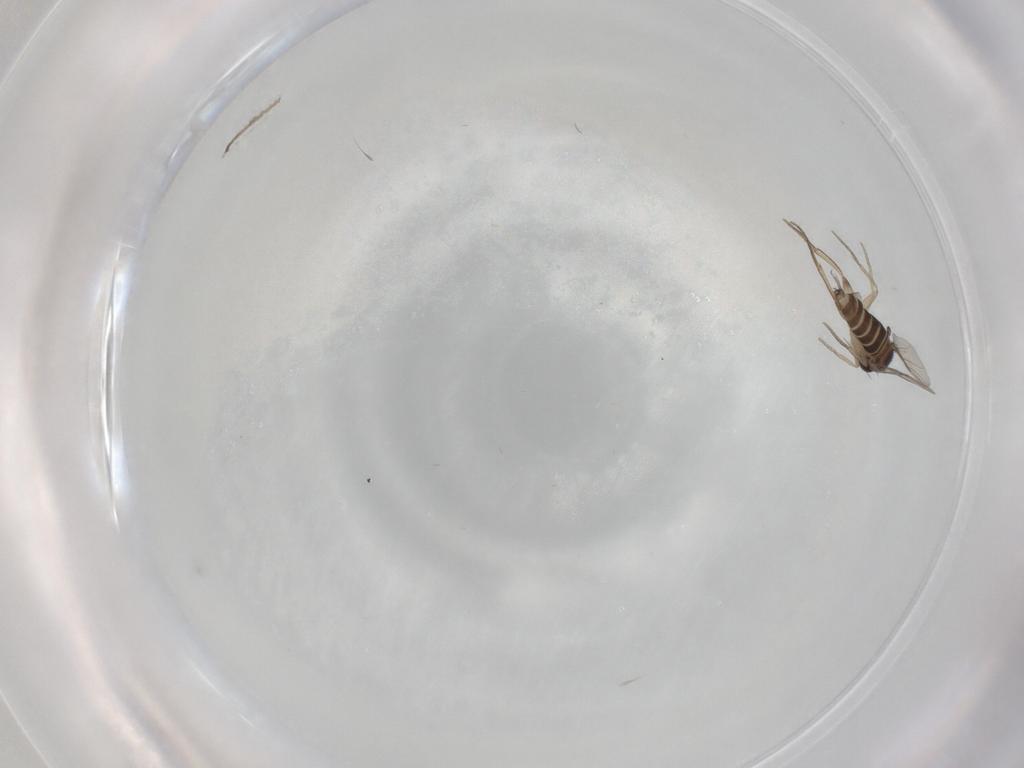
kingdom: Animalia
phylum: Arthropoda
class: Insecta
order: Diptera
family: Phoridae
